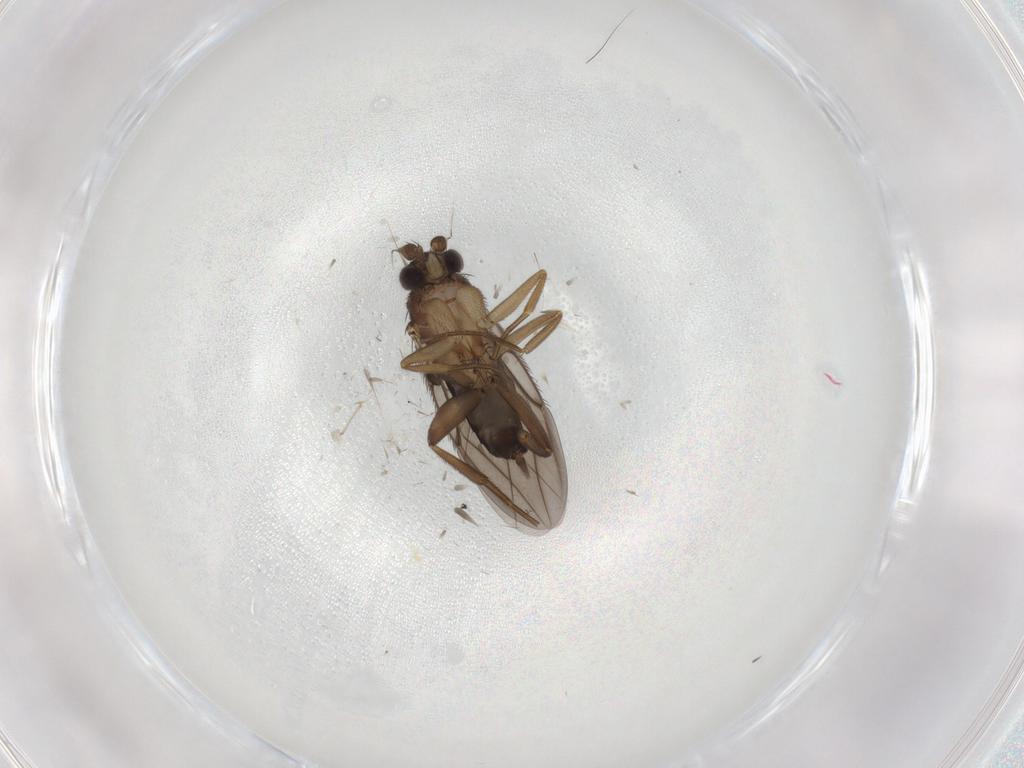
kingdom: Animalia
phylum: Arthropoda
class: Insecta
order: Diptera
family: Phoridae
